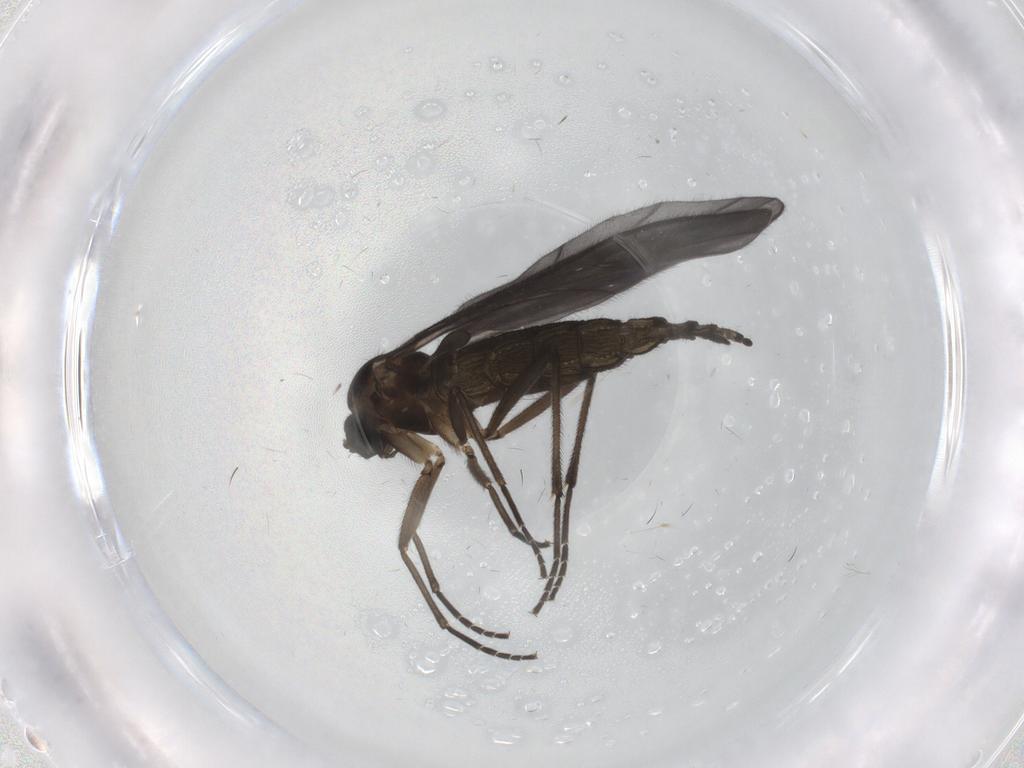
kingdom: Animalia
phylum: Arthropoda
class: Insecta
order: Diptera
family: Sciaridae
